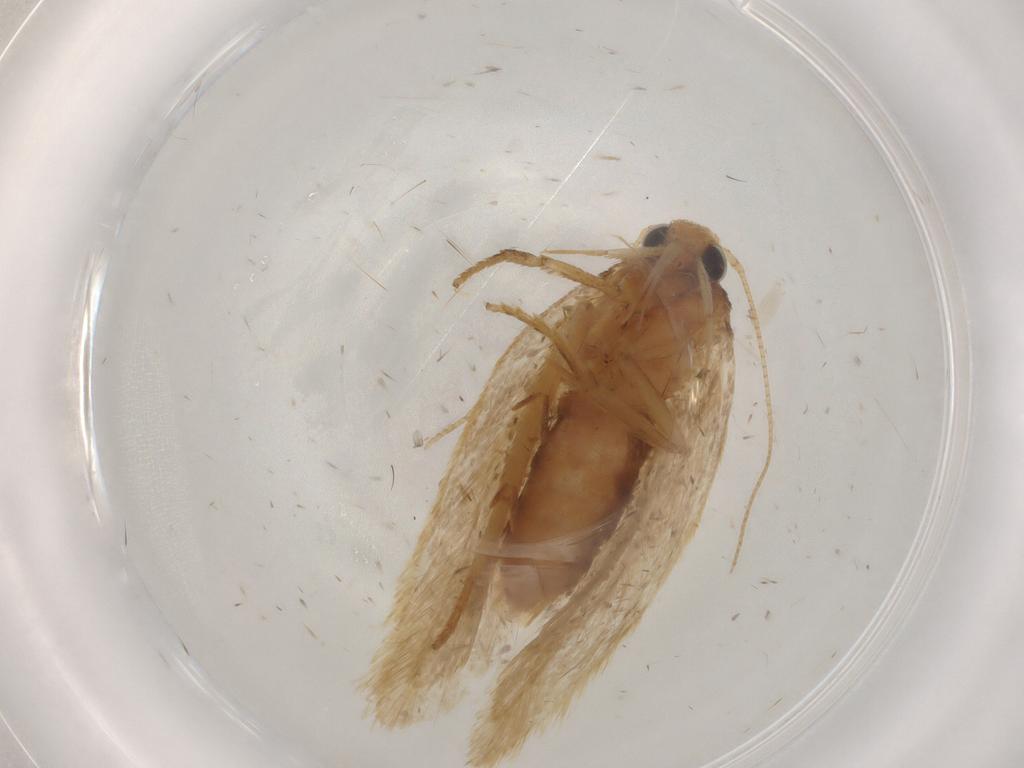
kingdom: Animalia
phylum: Arthropoda
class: Insecta
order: Lepidoptera
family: Depressariidae
